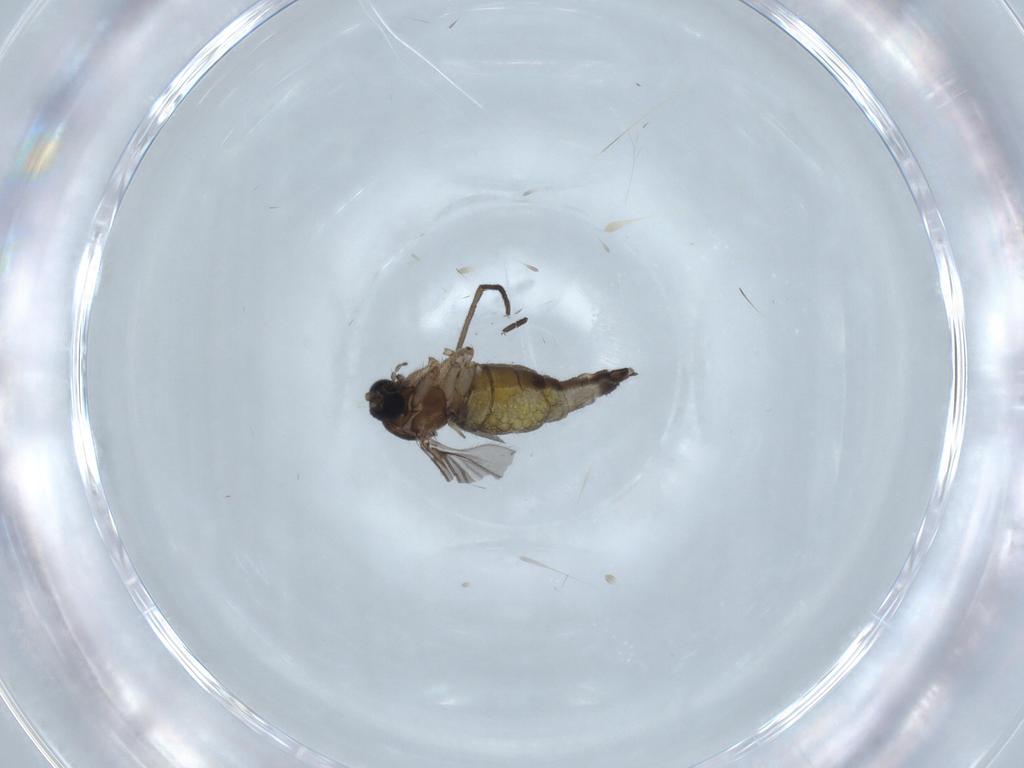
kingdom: Animalia
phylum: Arthropoda
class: Insecta
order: Diptera
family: Sciaridae
